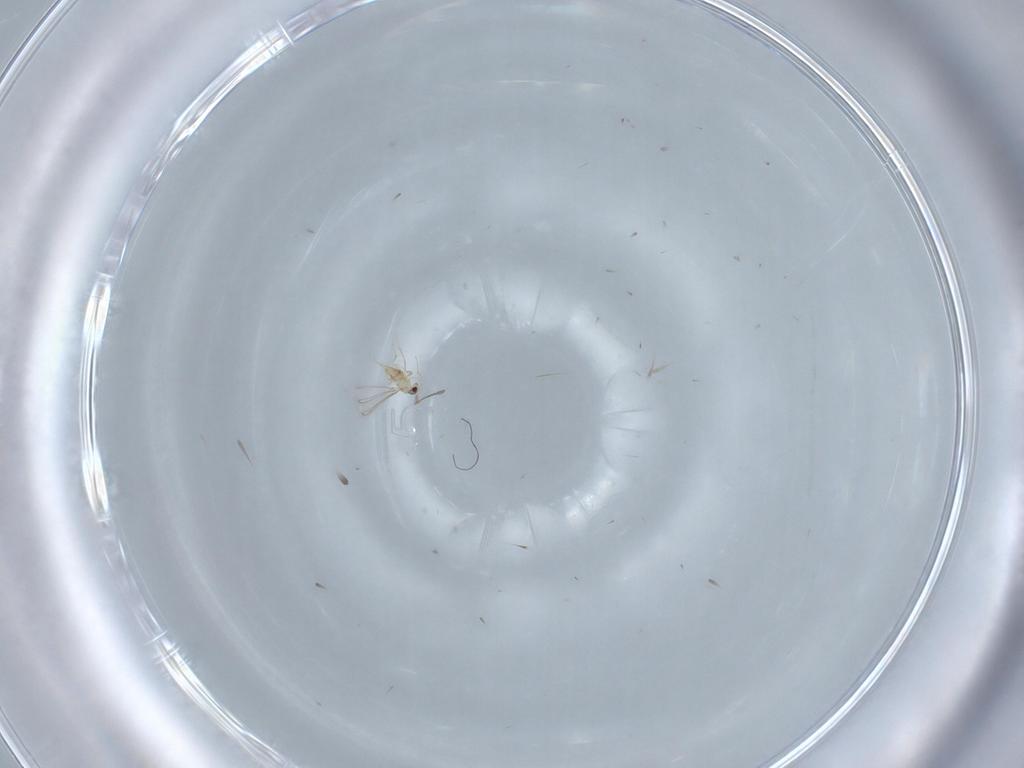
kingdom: Animalia
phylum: Arthropoda
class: Insecta
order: Hymenoptera
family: Mymaridae
